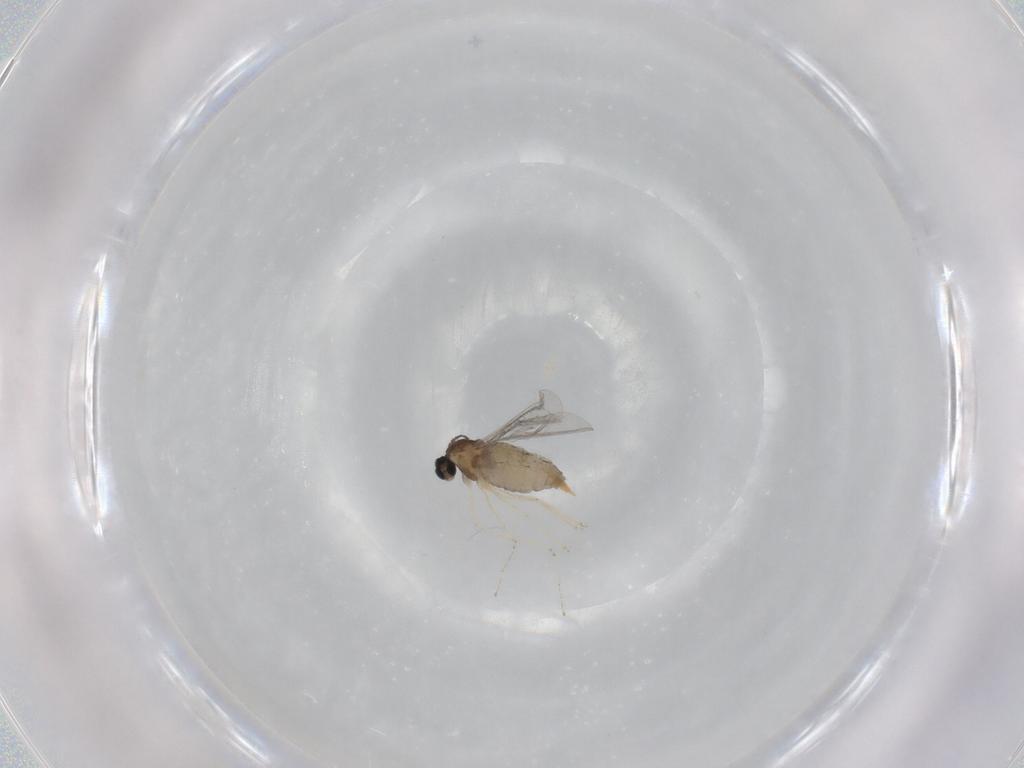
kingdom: Animalia
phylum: Arthropoda
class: Insecta
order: Diptera
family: Cecidomyiidae
